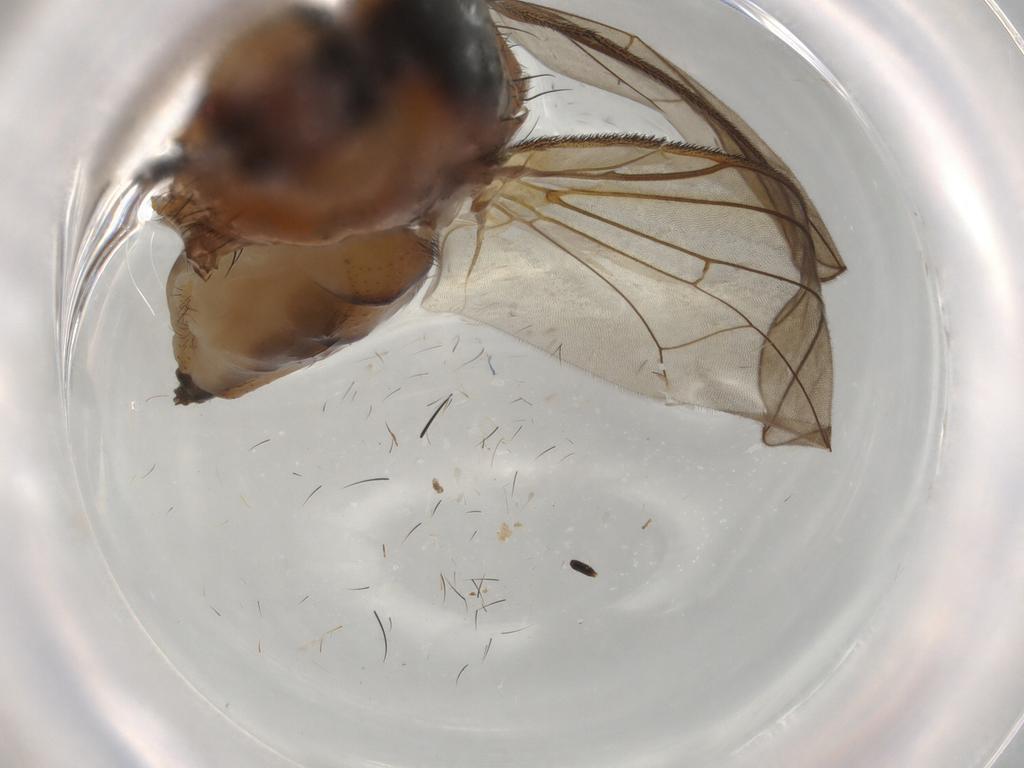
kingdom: Animalia
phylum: Arthropoda
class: Insecta
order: Diptera
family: Anthomyiidae
